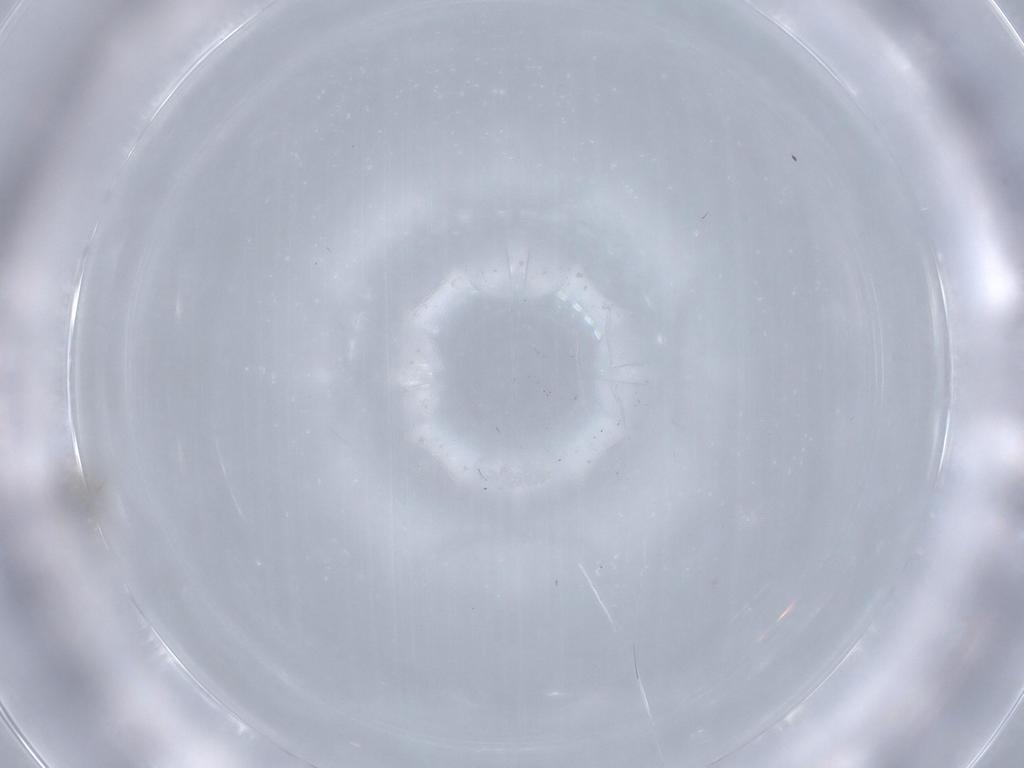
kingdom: Animalia
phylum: Arthropoda
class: Insecta
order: Diptera
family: Cecidomyiidae
